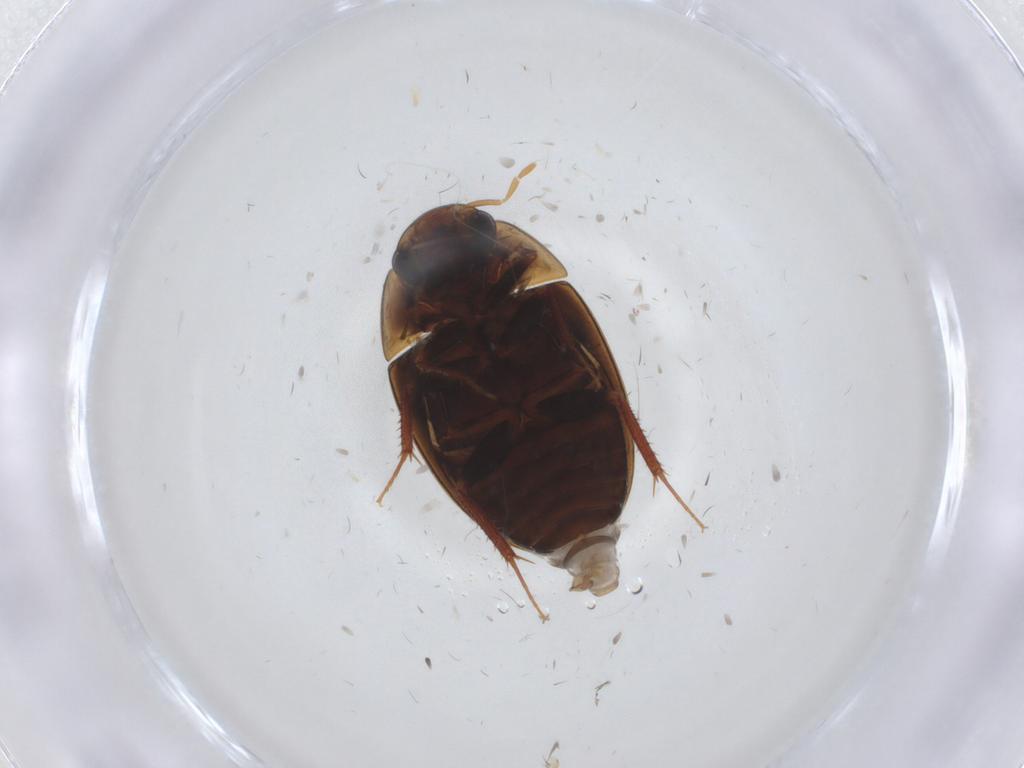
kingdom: Animalia
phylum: Arthropoda
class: Insecta
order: Coleoptera
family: Hydrophilidae
